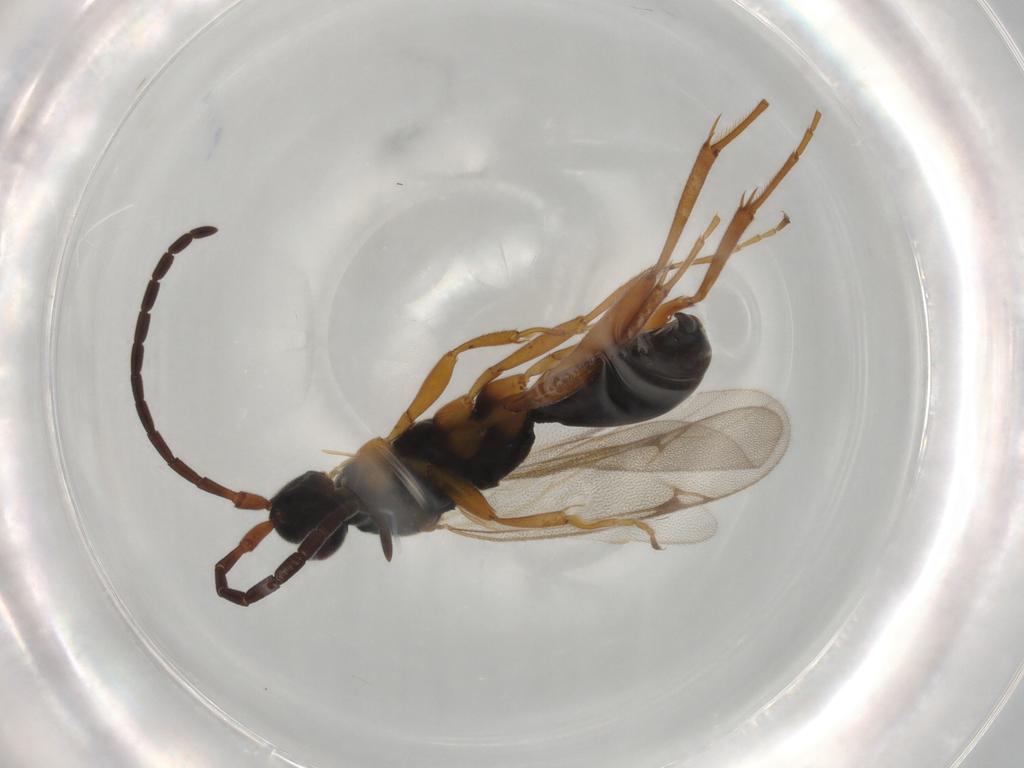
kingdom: Animalia
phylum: Arthropoda
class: Insecta
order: Hymenoptera
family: Proctotrupidae
